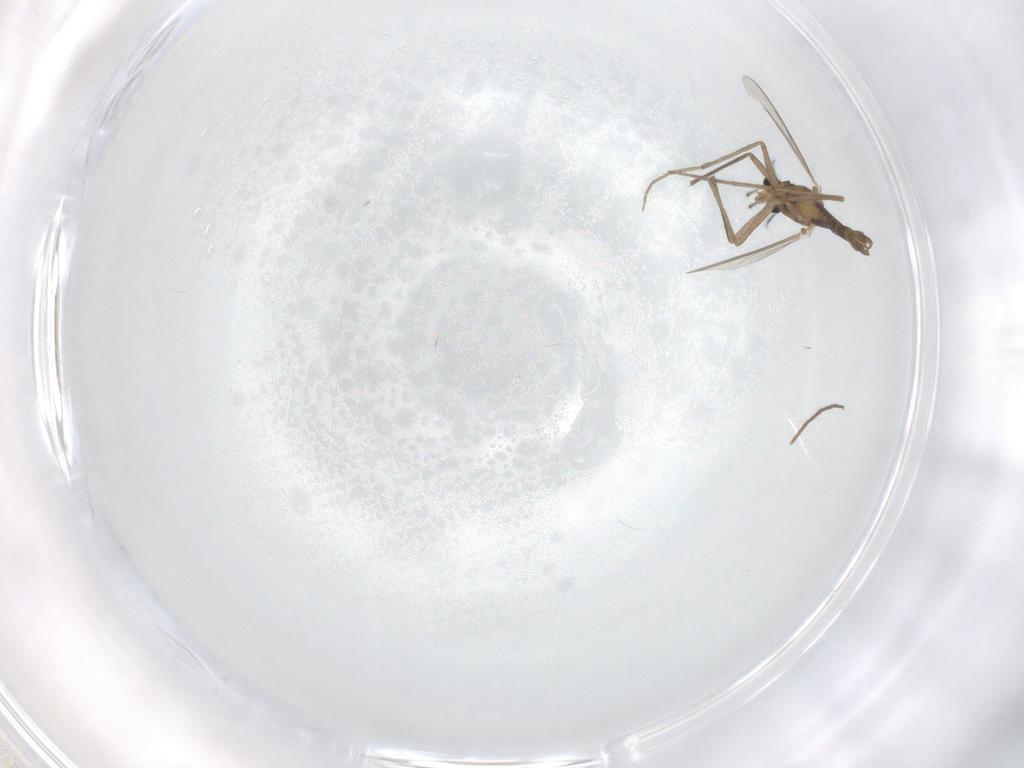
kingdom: Animalia
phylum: Arthropoda
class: Insecta
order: Diptera
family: Chironomidae
